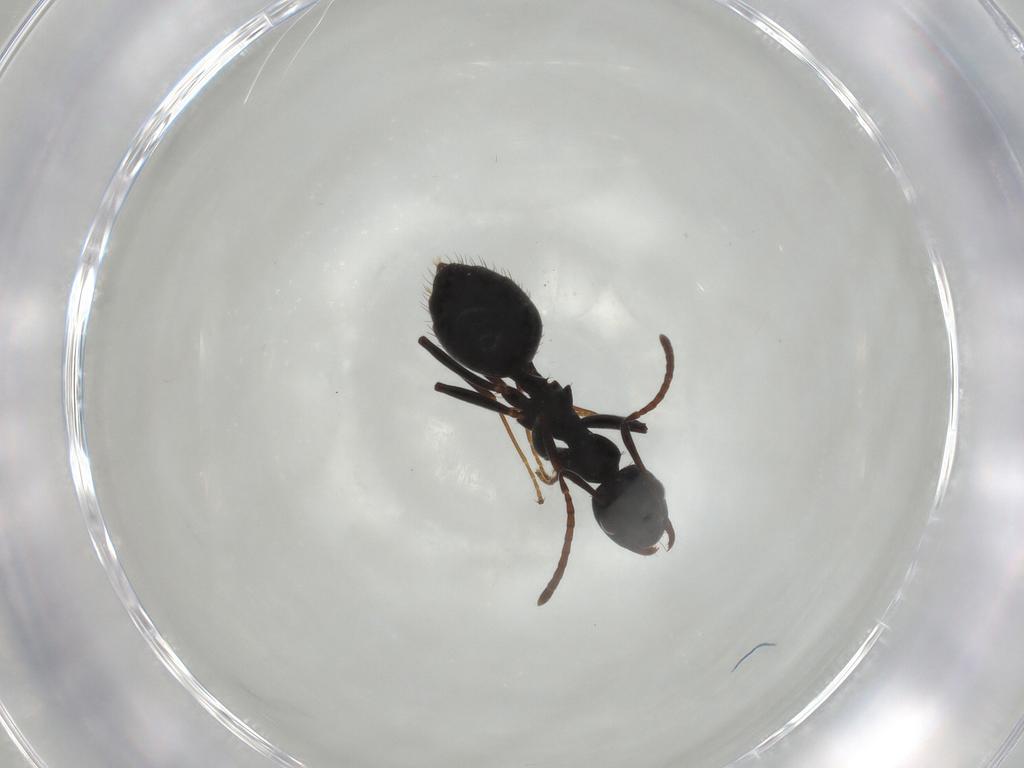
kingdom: Animalia
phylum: Arthropoda
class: Insecta
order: Hymenoptera
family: Formicidae
